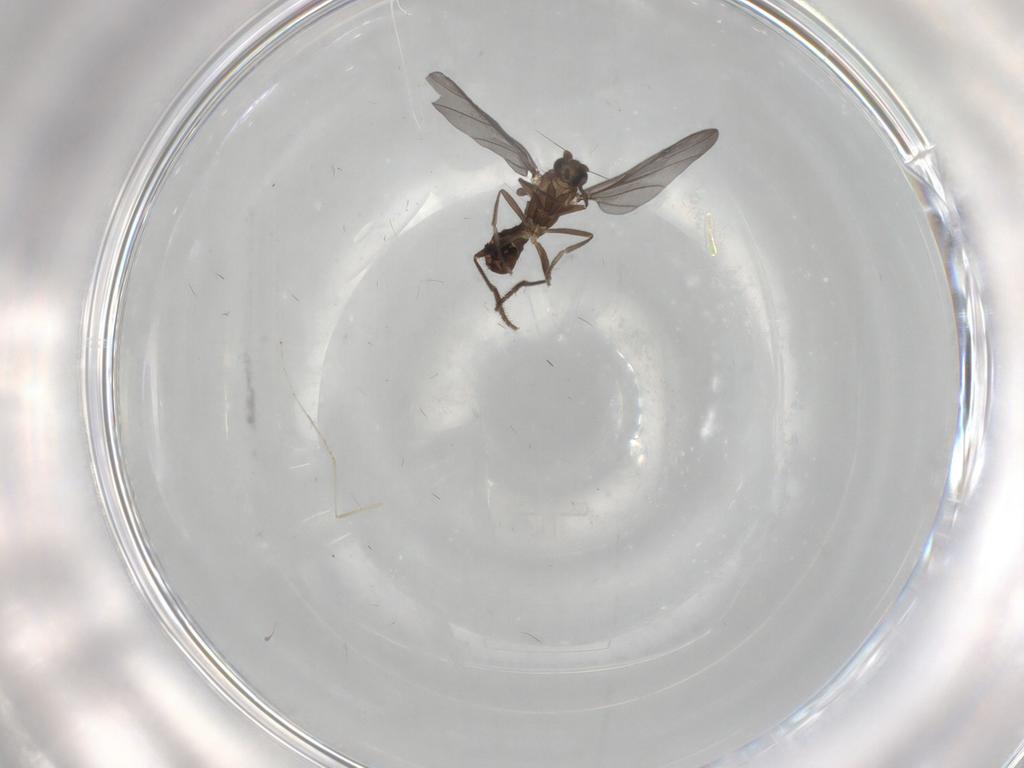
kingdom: Animalia
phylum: Arthropoda
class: Insecta
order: Diptera
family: Phoridae
